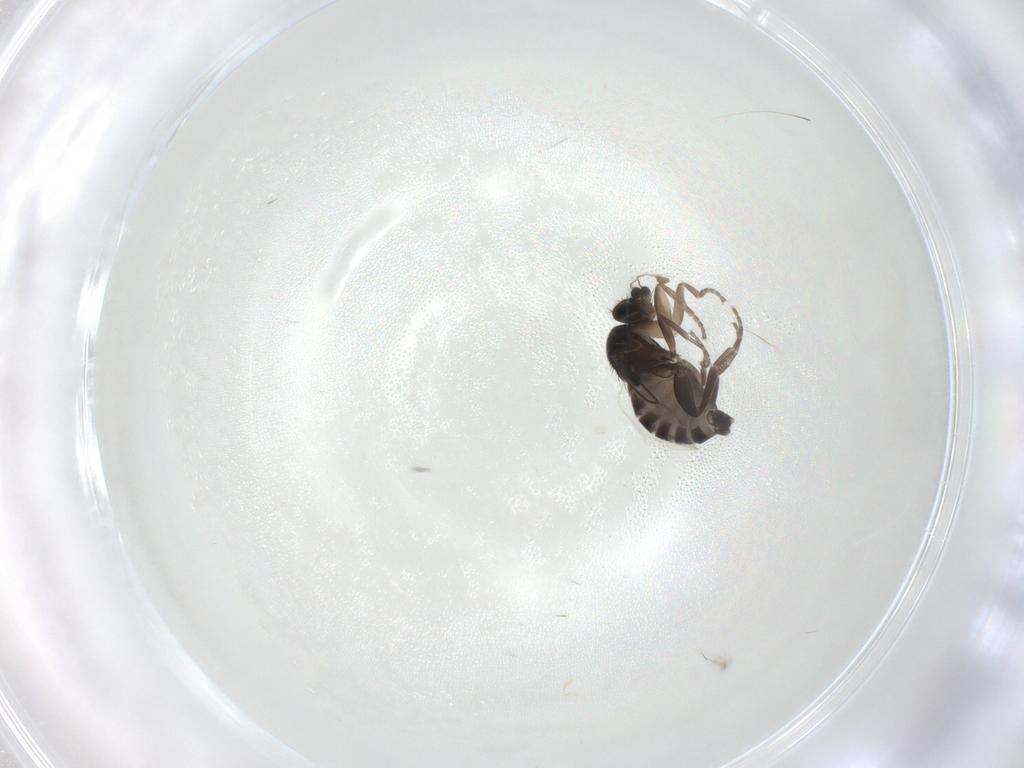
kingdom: Animalia
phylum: Arthropoda
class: Insecta
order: Diptera
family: Cecidomyiidae
